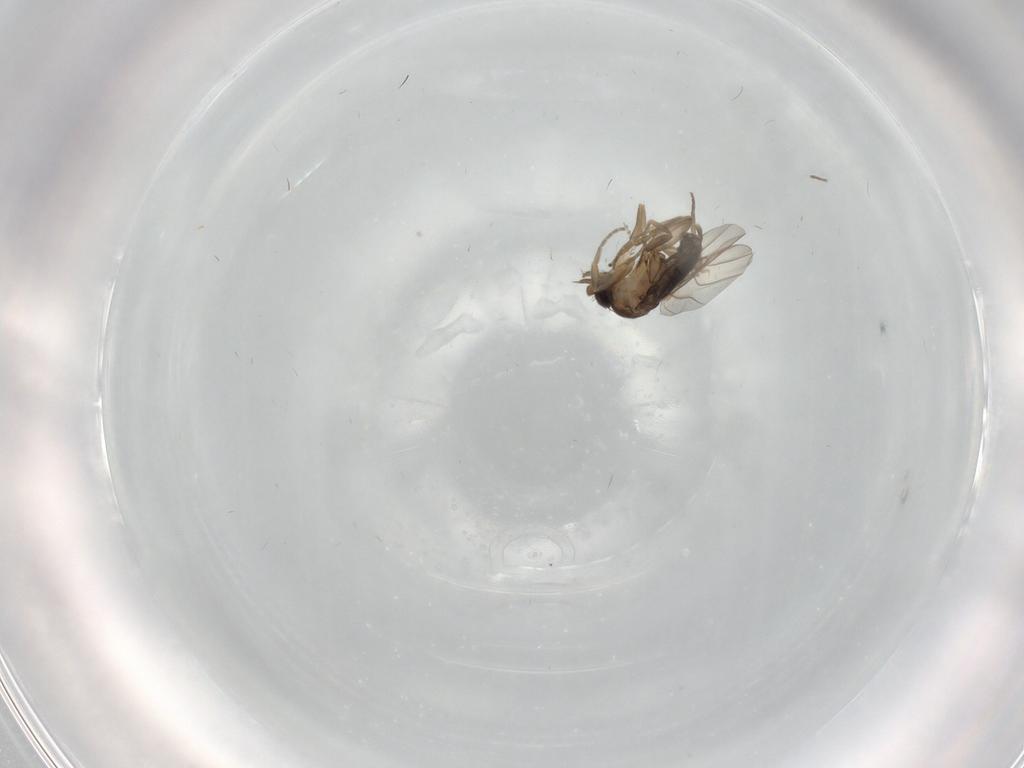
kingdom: Animalia
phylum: Arthropoda
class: Insecta
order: Diptera
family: Phoridae
